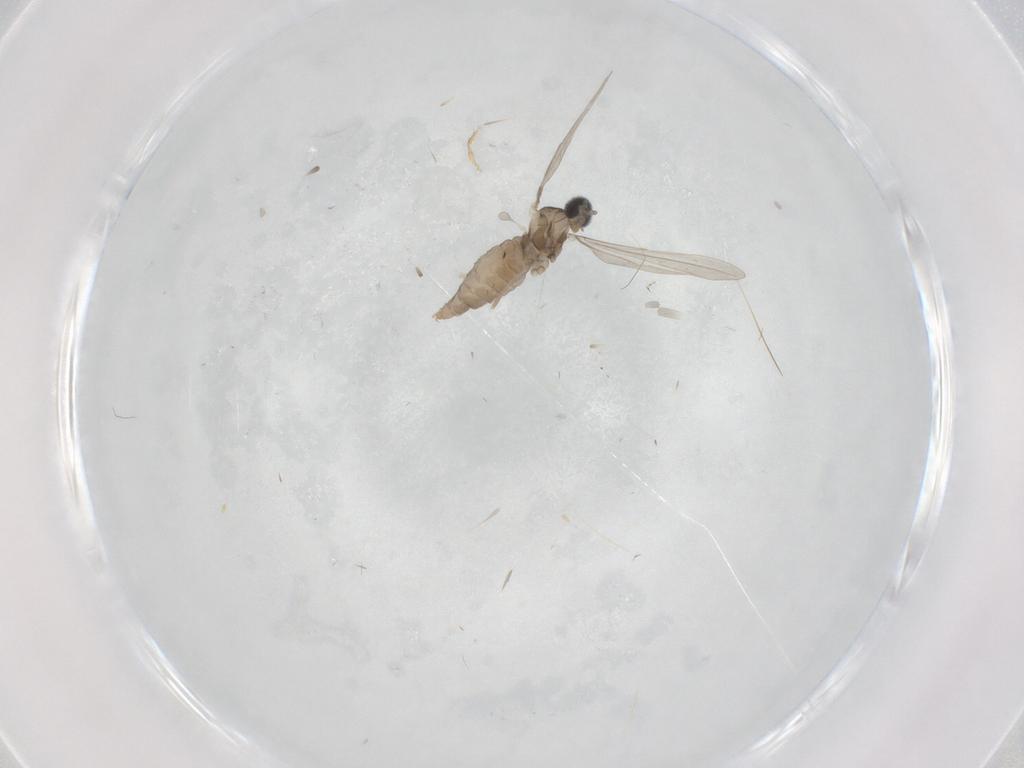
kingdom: Animalia
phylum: Arthropoda
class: Insecta
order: Diptera
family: Cecidomyiidae
